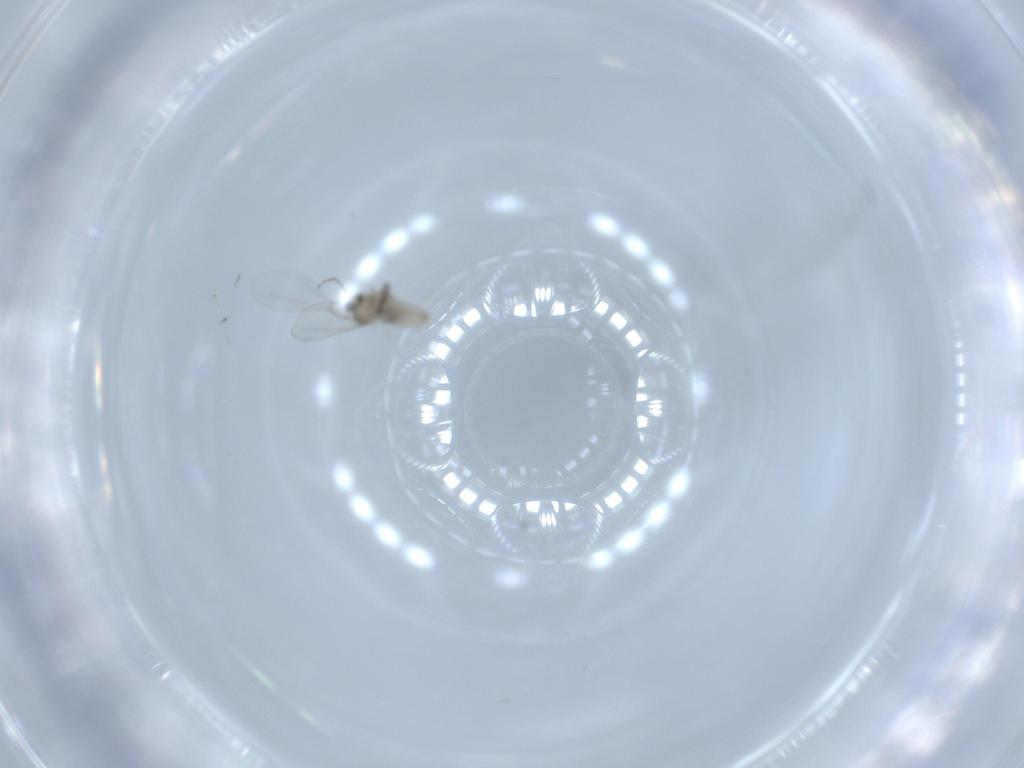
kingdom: Animalia
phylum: Arthropoda
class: Insecta
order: Diptera
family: Cecidomyiidae
